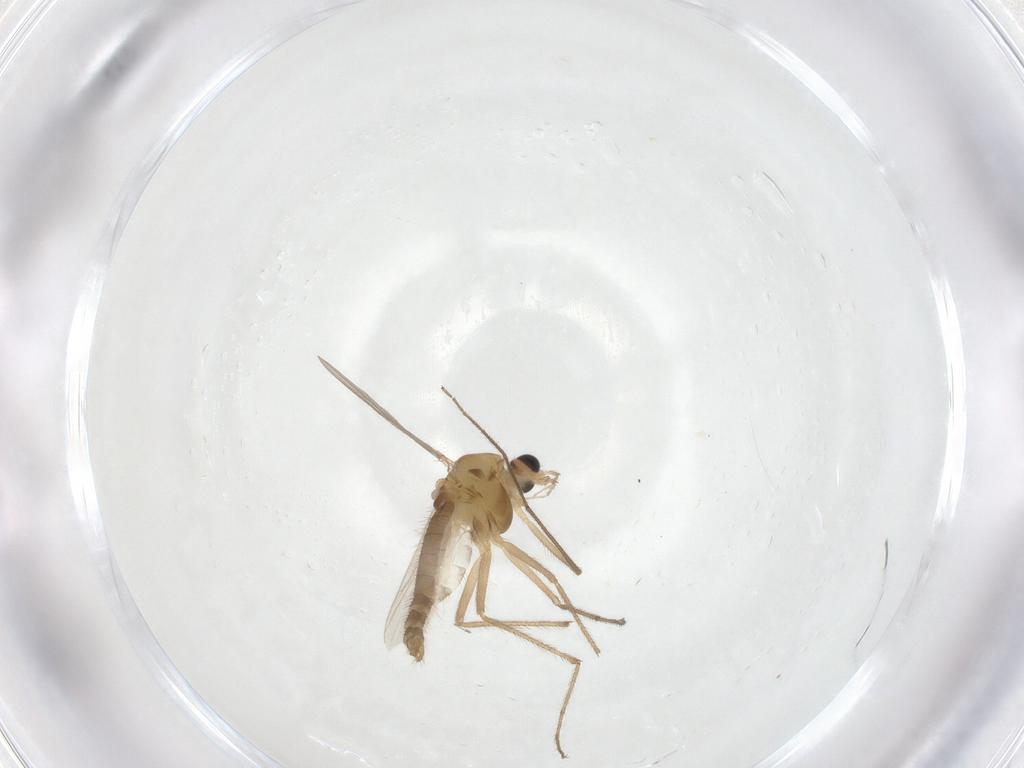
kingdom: Animalia
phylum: Arthropoda
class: Insecta
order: Diptera
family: Chironomidae
